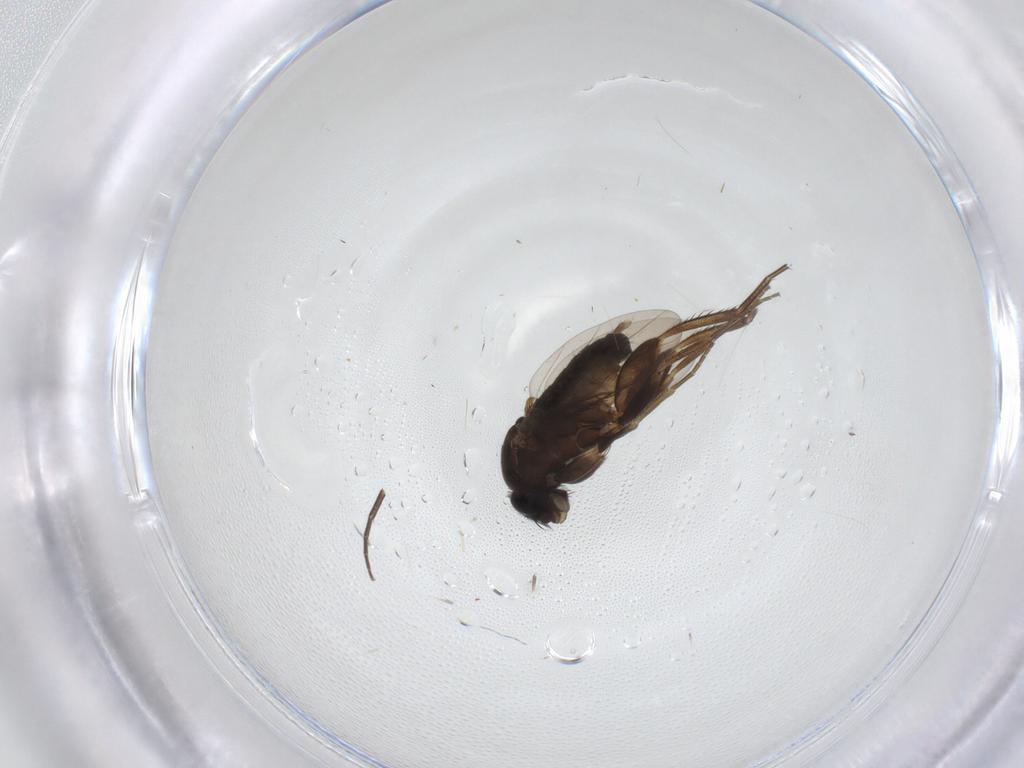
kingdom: Animalia
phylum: Arthropoda
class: Insecta
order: Diptera
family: Phoridae
